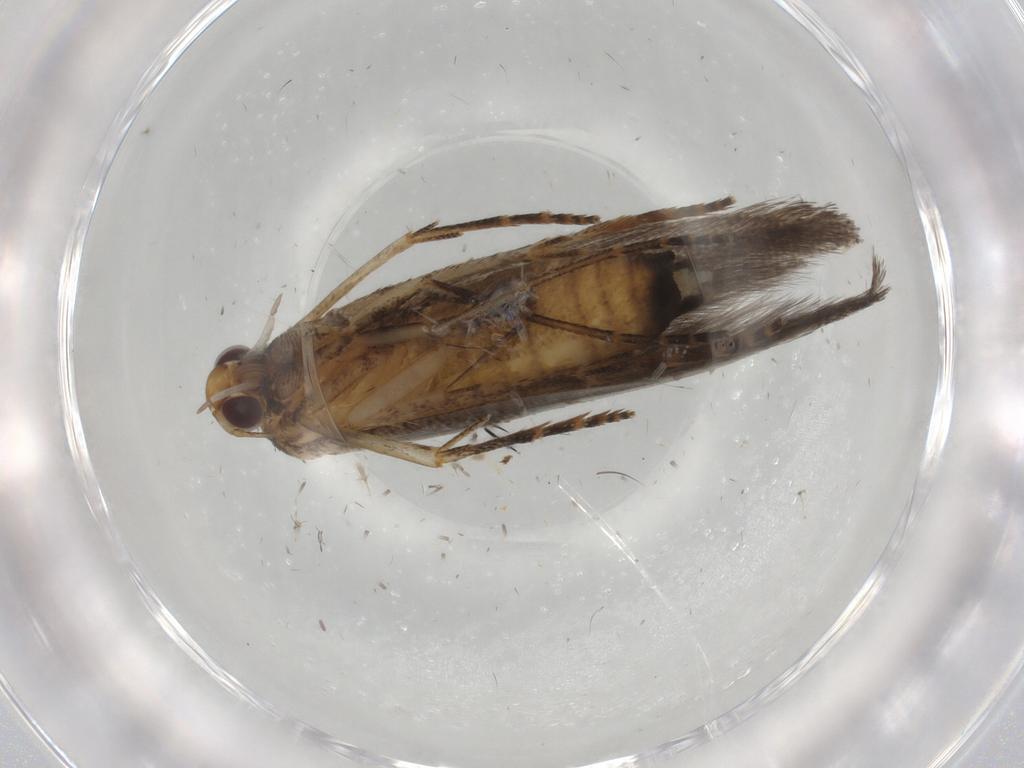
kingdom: Animalia
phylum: Arthropoda
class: Insecta
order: Lepidoptera
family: Epermeniidae
